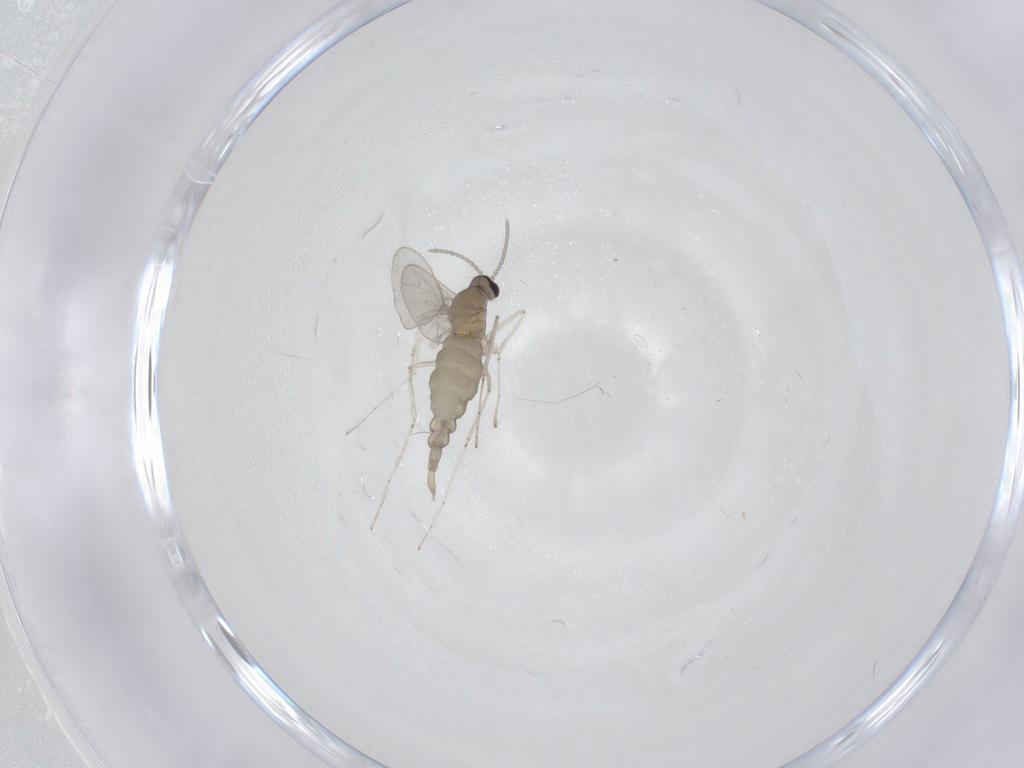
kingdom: Animalia
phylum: Arthropoda
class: Insecta
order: Diptera
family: Cecidomyiidae
